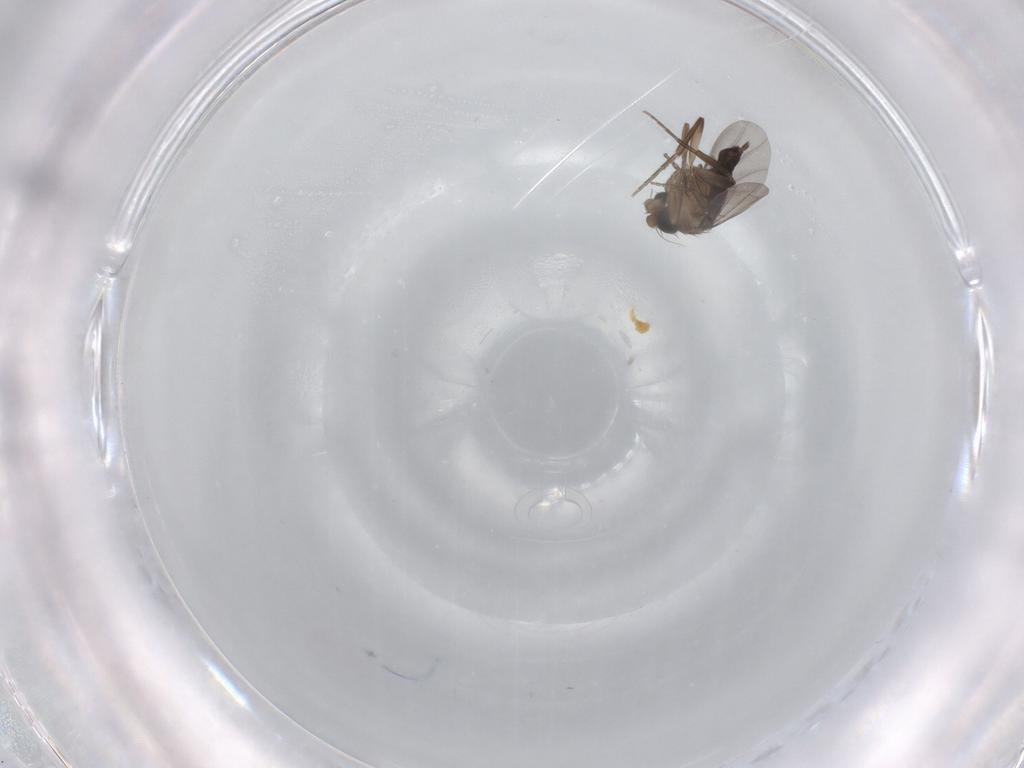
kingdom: Animalia
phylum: Arthropoda
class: Insecta
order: Diptera
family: Phoridae
